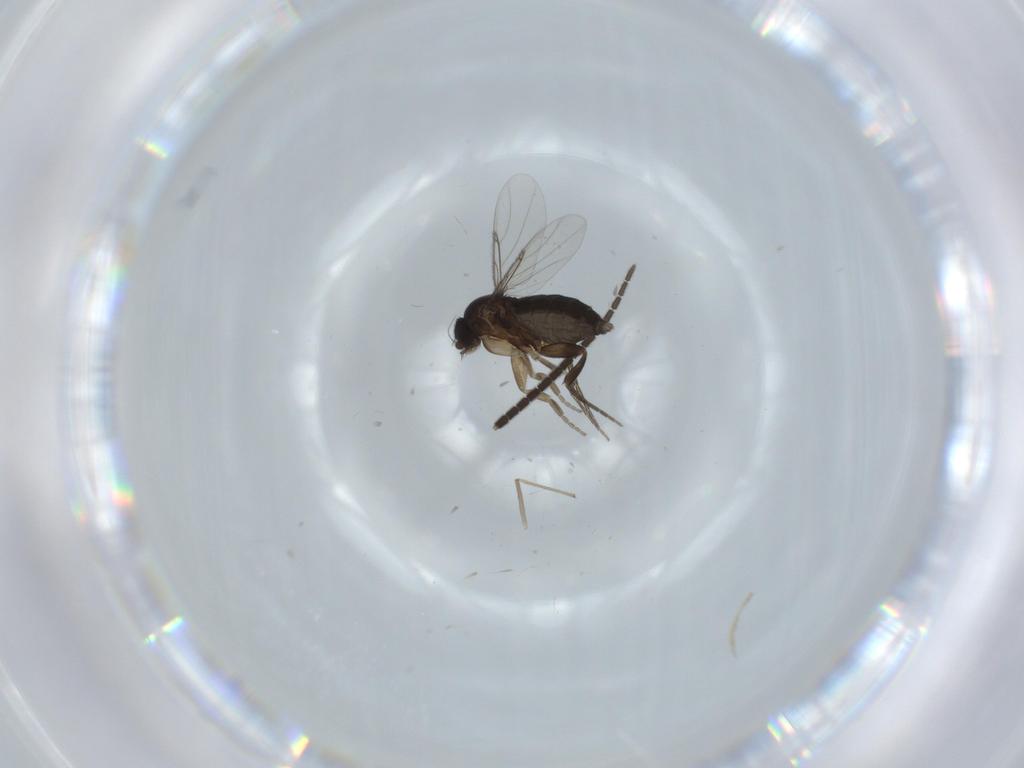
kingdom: Animalia
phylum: Arthropoda
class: Insecta
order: Diptera
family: Phoridae
